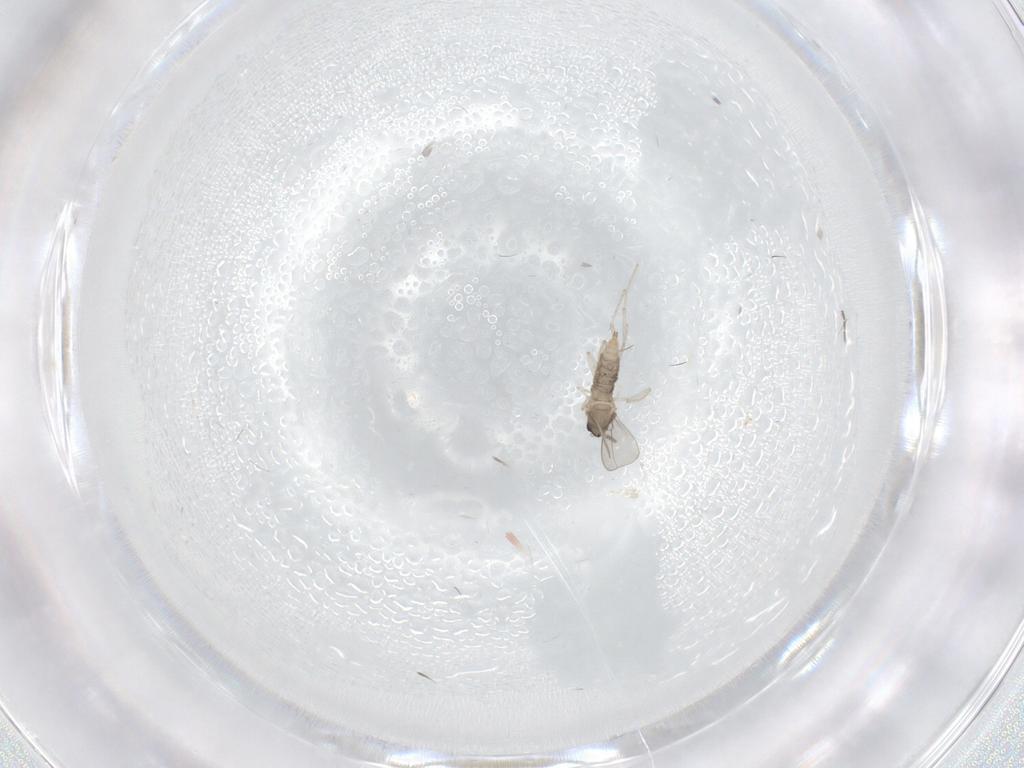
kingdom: Animalia
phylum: Arthropoda
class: Insecta
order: Diptera
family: Cecidomyiidae
